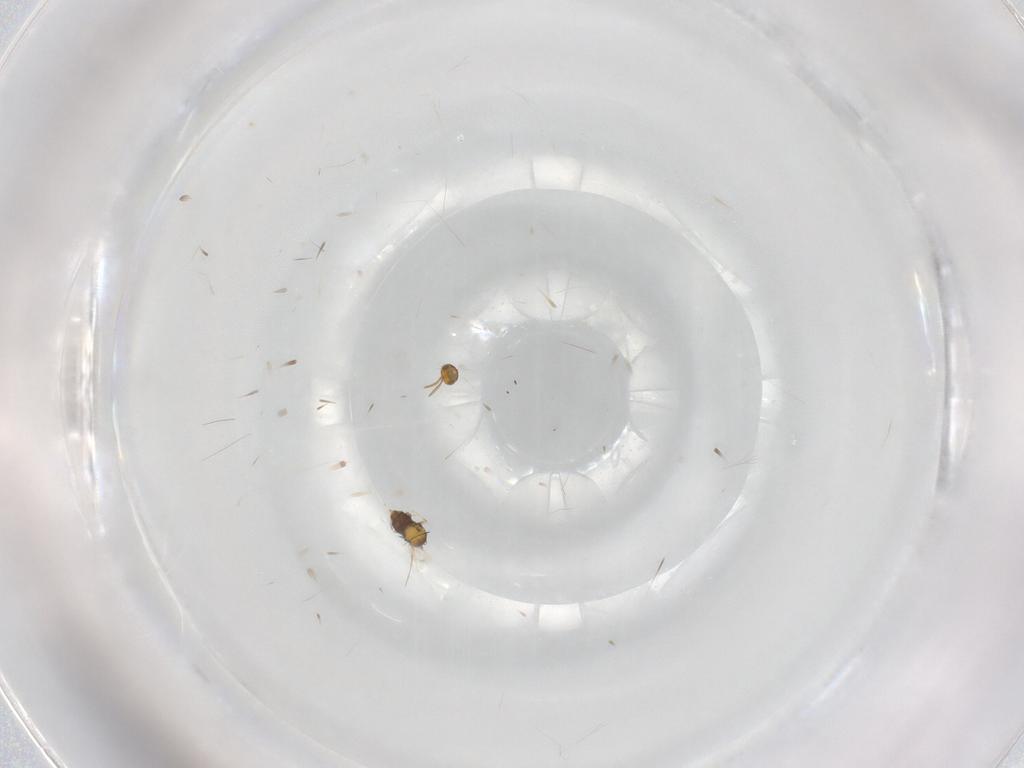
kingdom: Animalia
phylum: Arthropoda
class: Insecta
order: Hymenoptera
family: Aphelinidae
